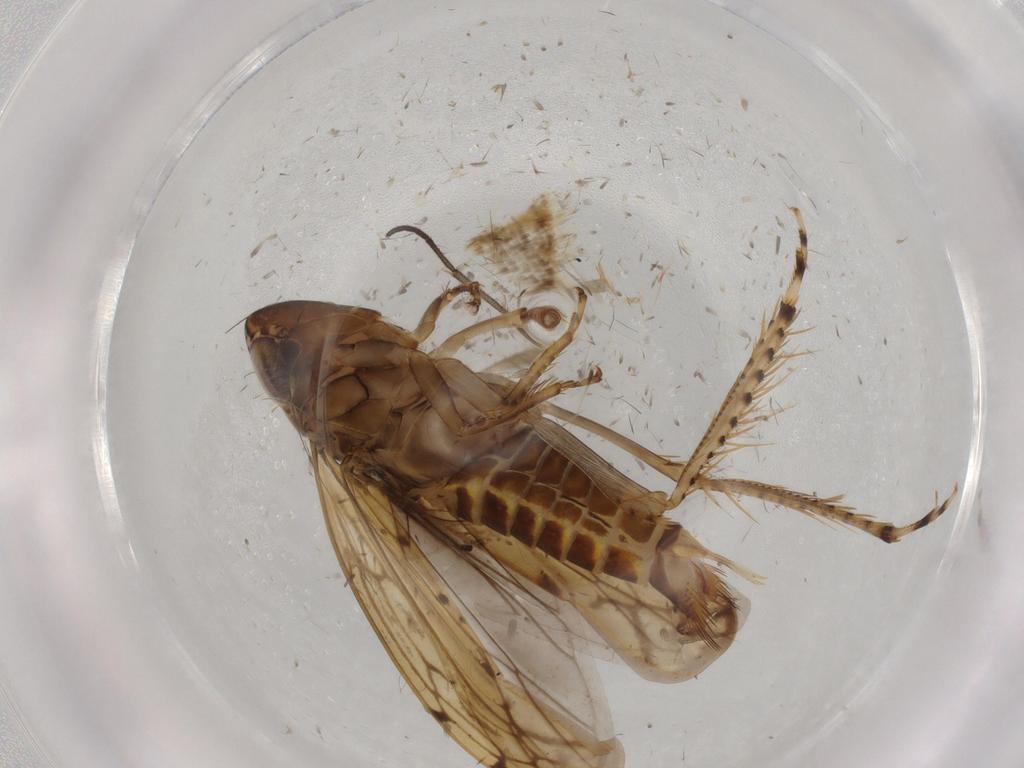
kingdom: Animalia
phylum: Arthropoda
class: Insecta
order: Hemiptera
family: Cicadellidae
